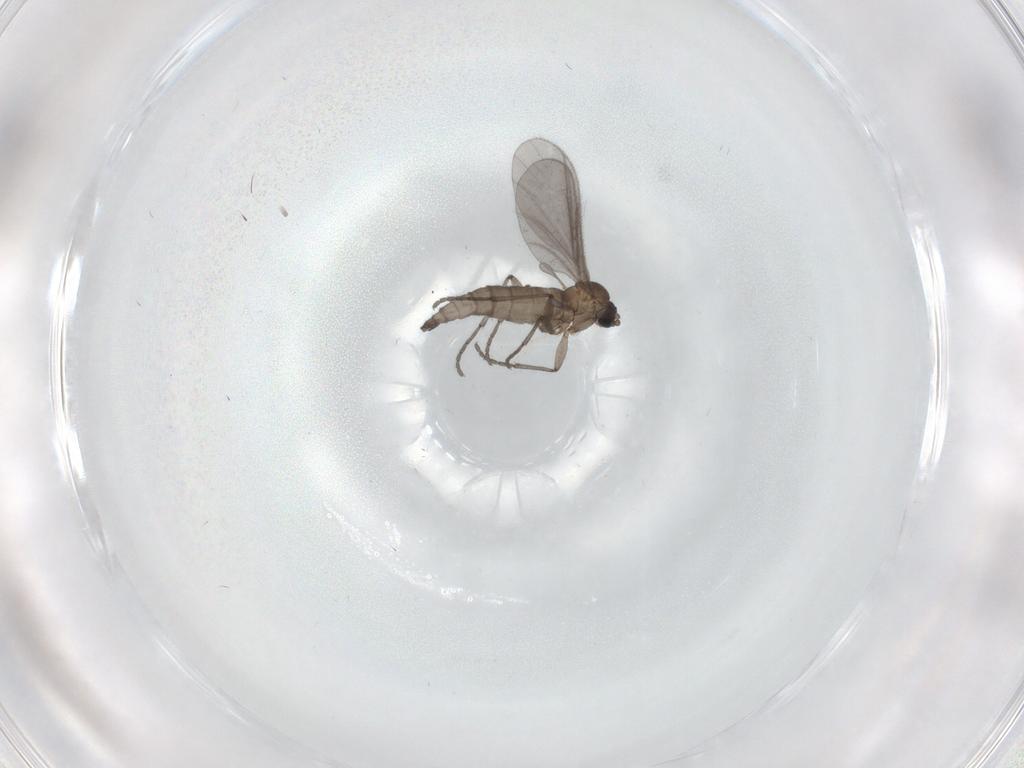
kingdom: Animalia
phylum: Arthropoda
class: Insecta
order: Diptera
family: Sciaridae
